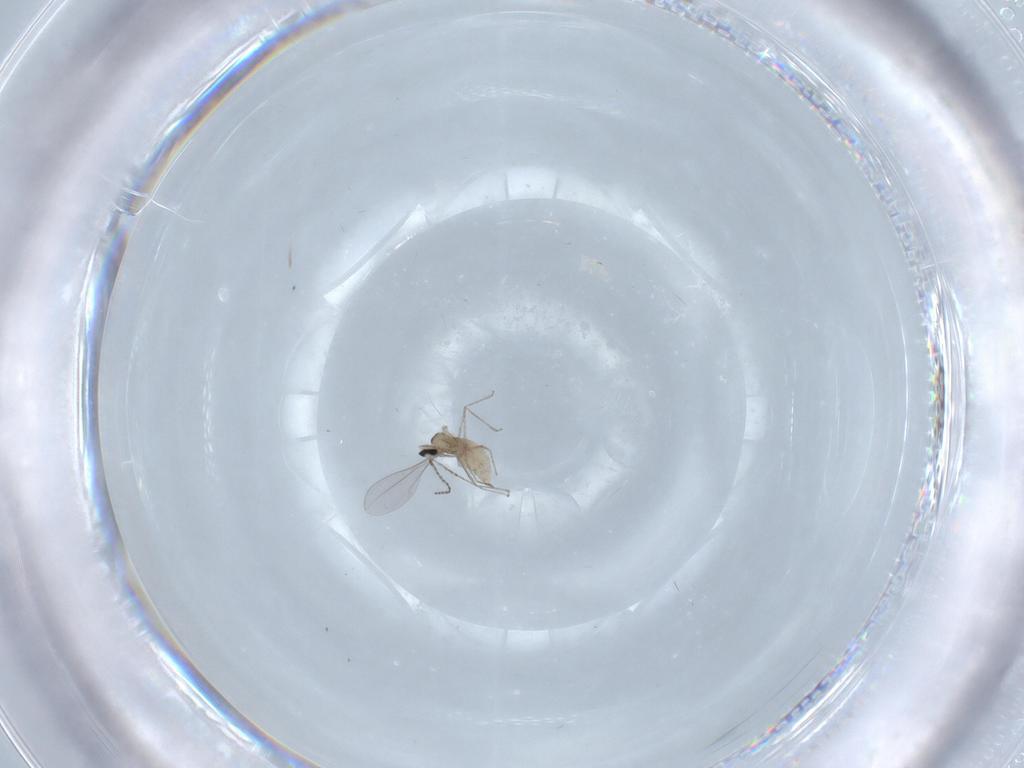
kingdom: Animalia
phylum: Arthropoda
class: Insecta
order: Diptera
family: Cecidomyiidae
